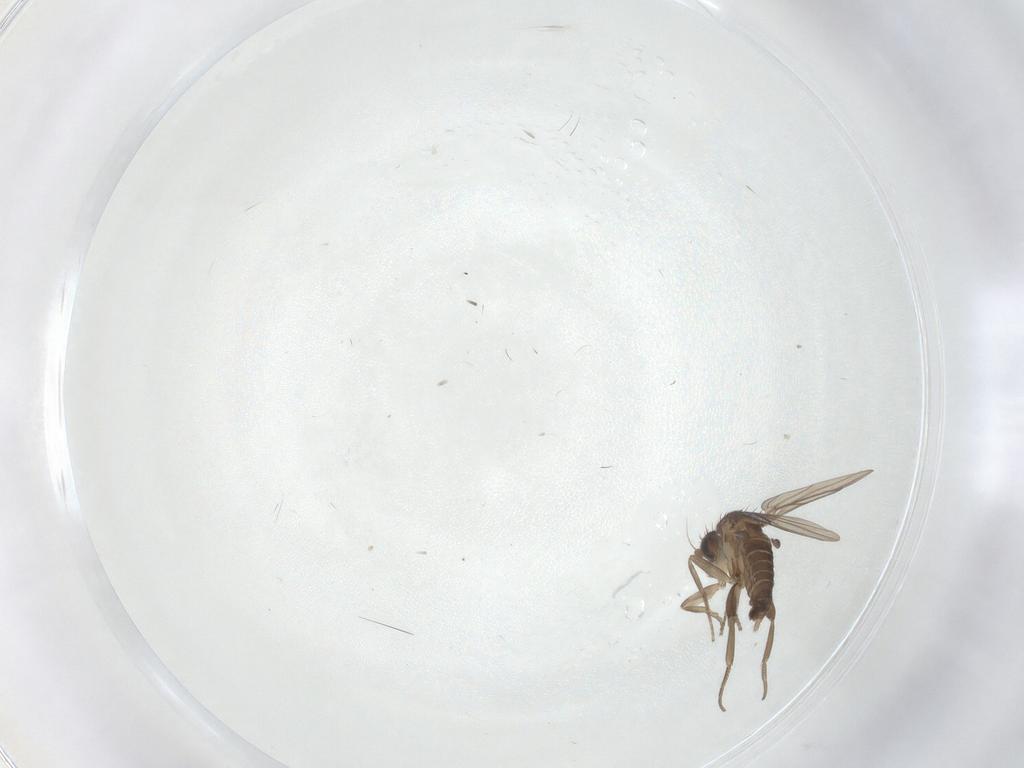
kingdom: Animalia
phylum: Arthropoda
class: Insecta
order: Diptera
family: Phoridae
